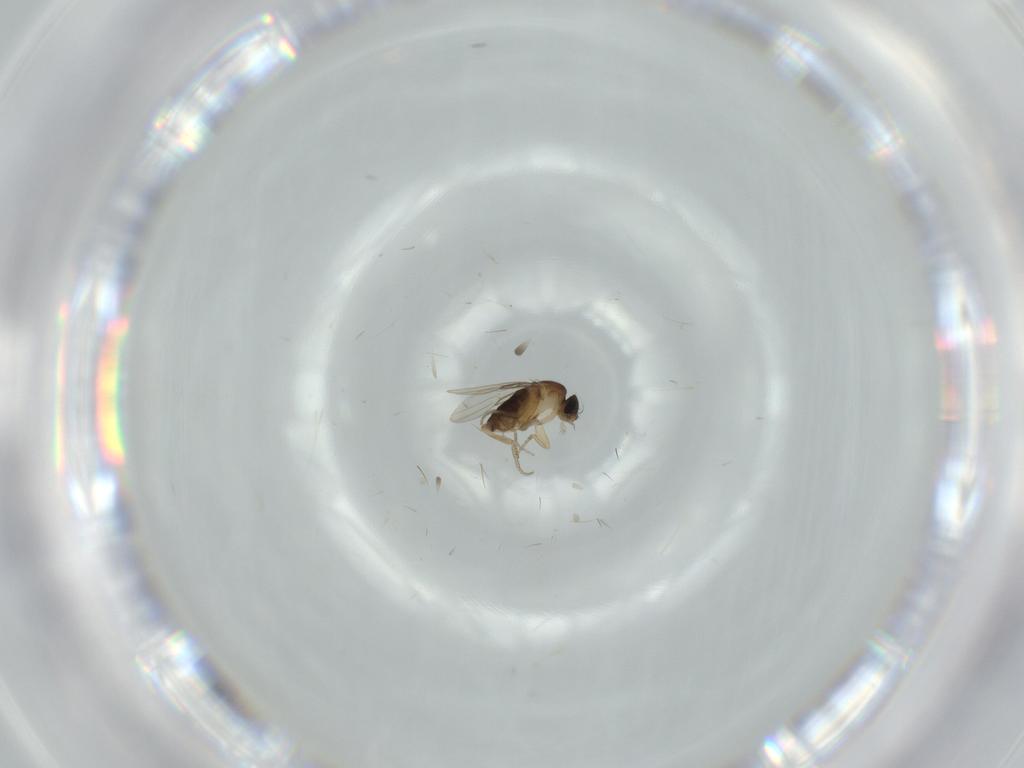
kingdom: Animalia
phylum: Arthropoda
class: Insecta
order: Diptera
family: Phoridae
